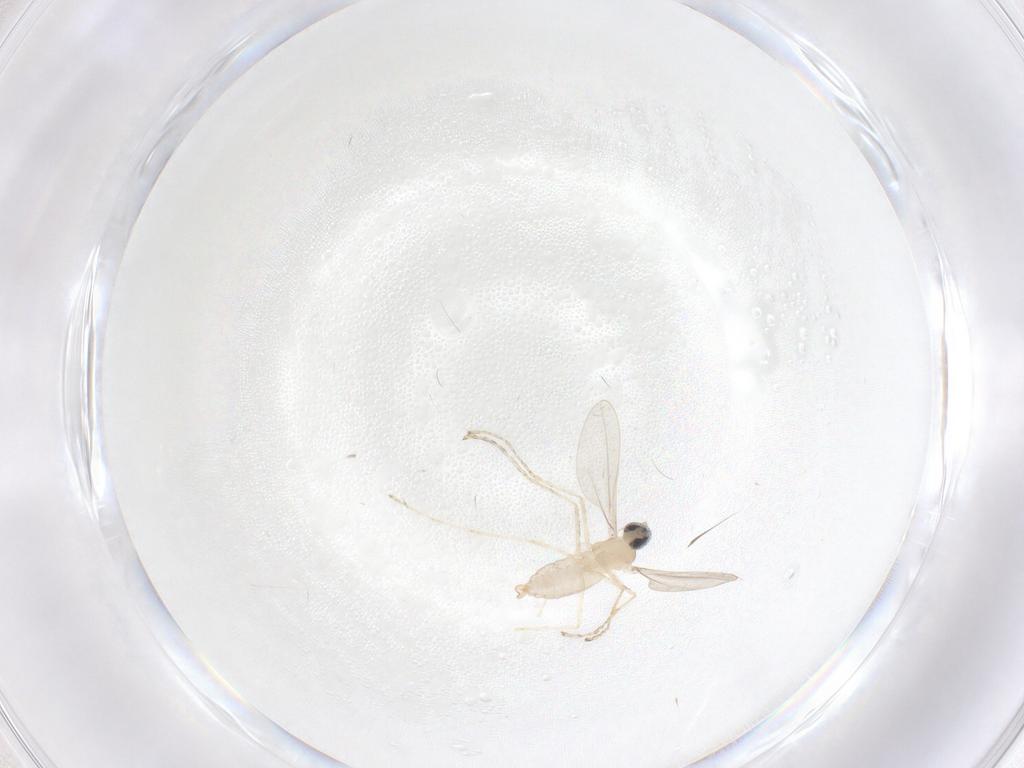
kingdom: Animalia
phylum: Arthropoda
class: Insecta
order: Diptera
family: Cecidomyiidae
